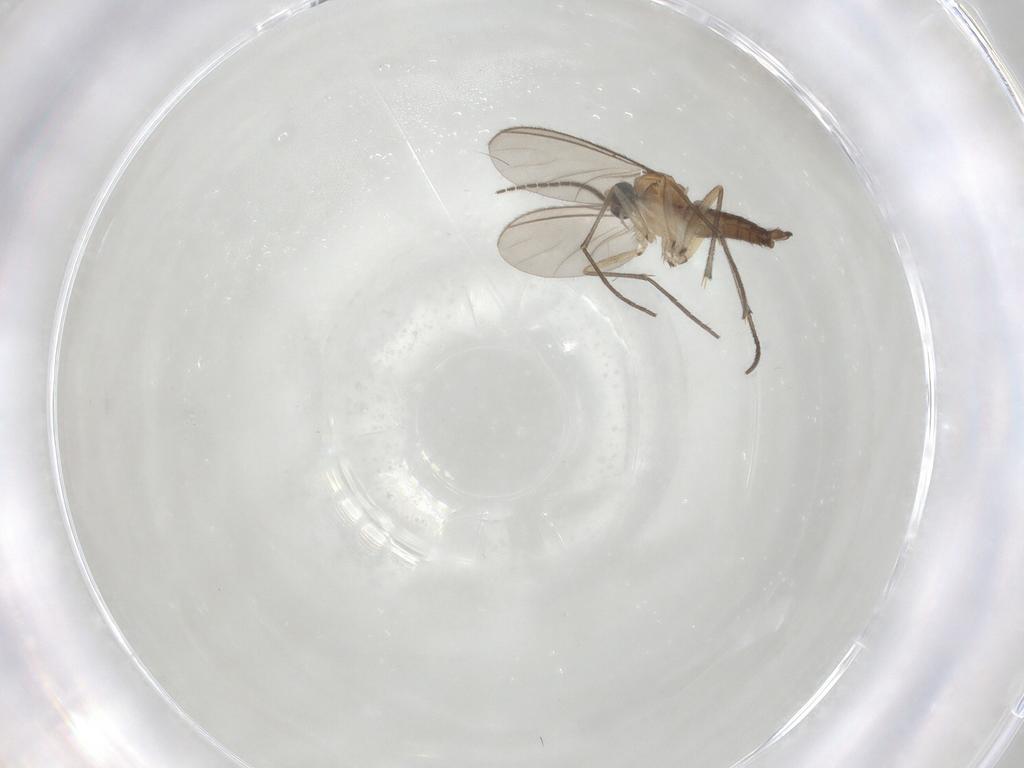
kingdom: Animalia
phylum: Arthropoda
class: Insecta
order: Diptera
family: Sciaridae
